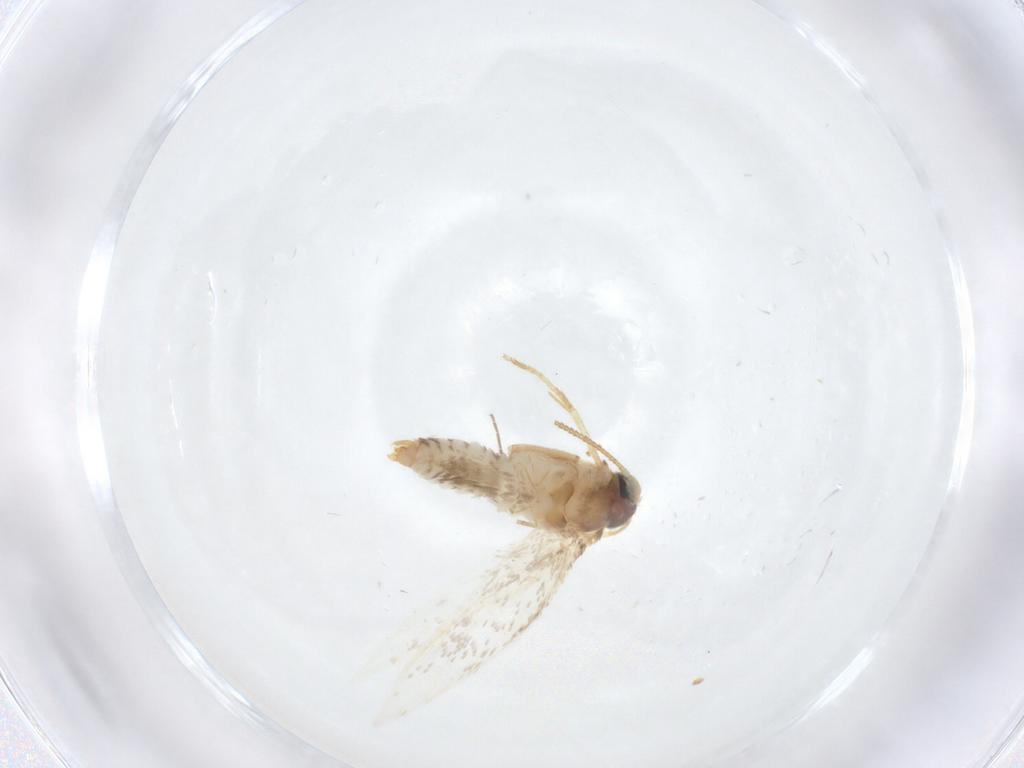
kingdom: Animalia
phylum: Arthropoda
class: Insecta
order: Lepidoptera
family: Nepticulidae
